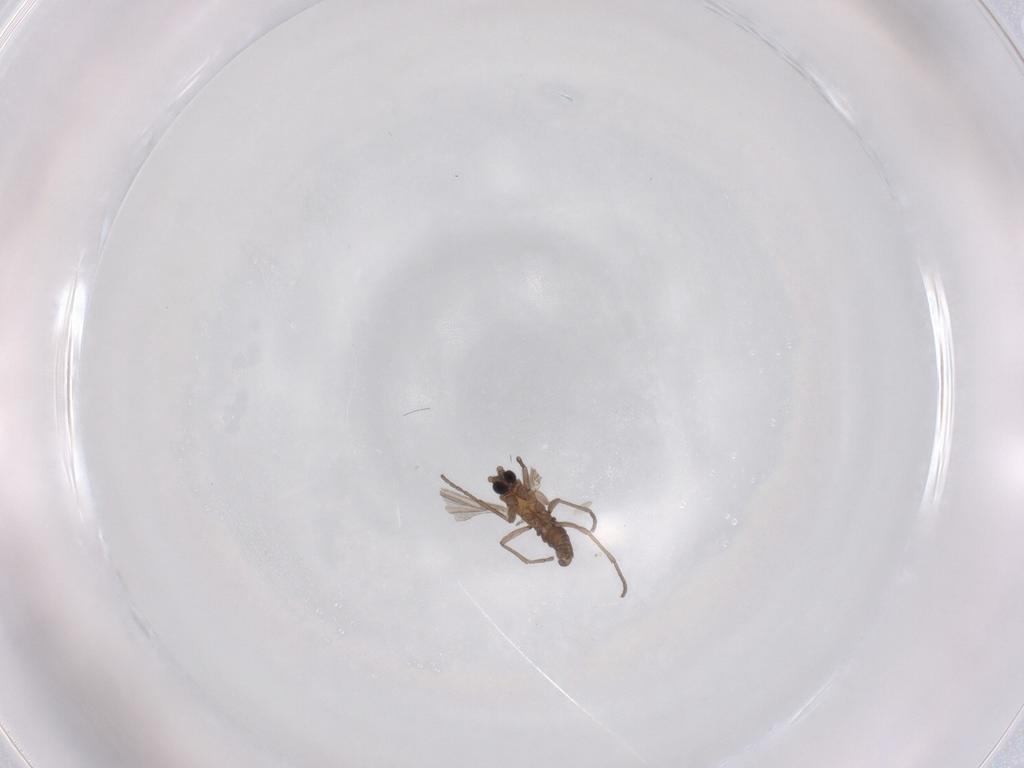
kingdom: Animalia
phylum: Arthropoda
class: Insecta
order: Diptera
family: Sciaridae
